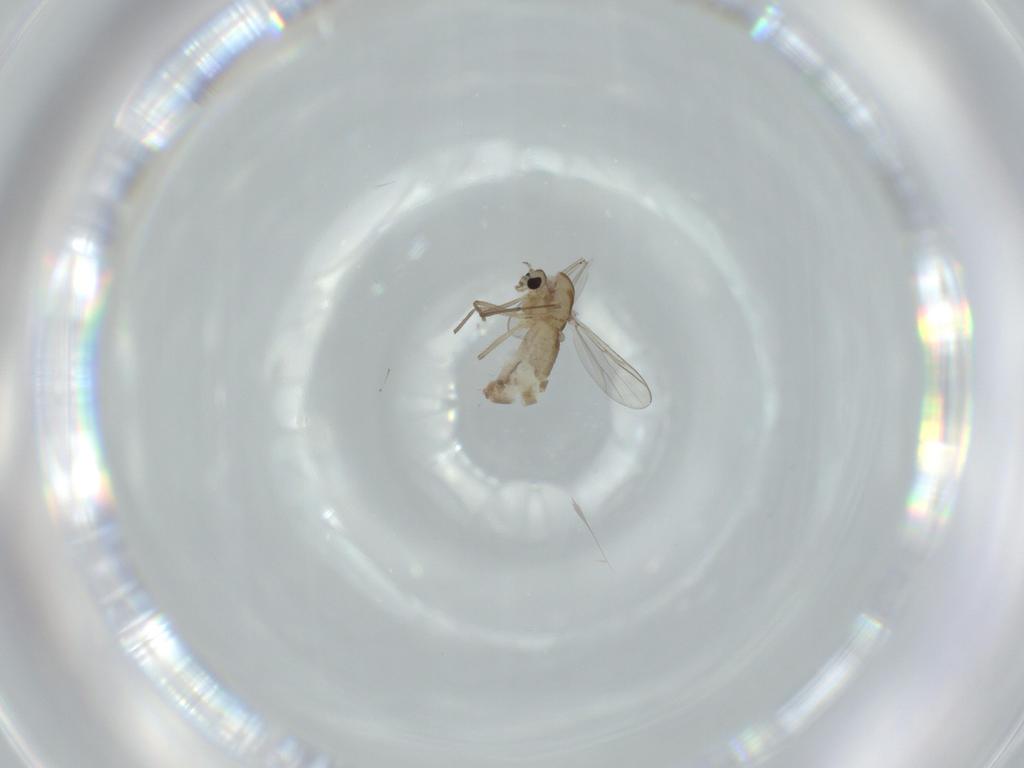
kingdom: Animalia
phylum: Arthropoda
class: Insecta
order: Diptera
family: Chironomidae
